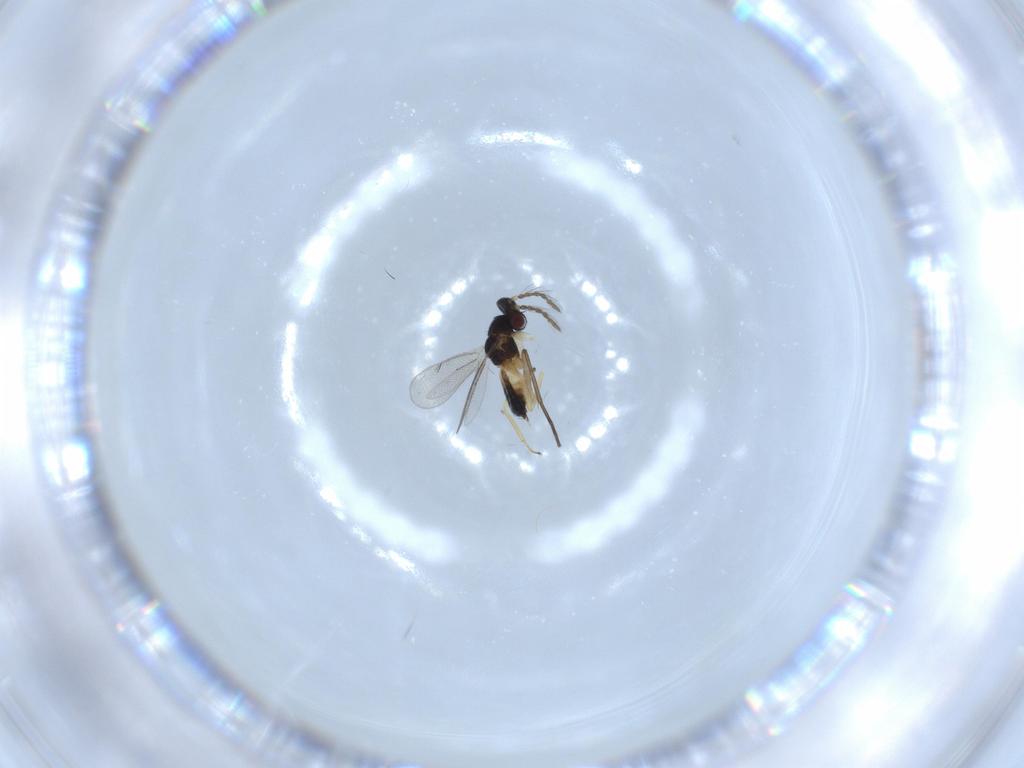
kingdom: Animalia
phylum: Arthropoda
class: Insecta
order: Hymenoptera
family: Eulophidae
